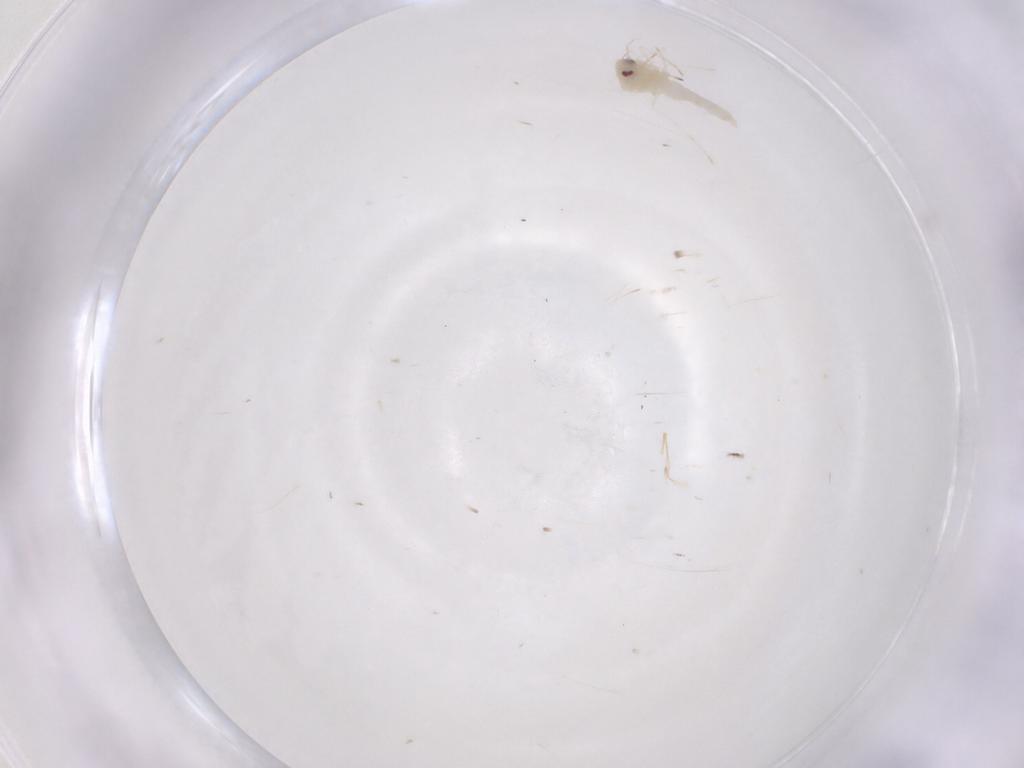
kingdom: Animalia
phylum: Arthropoda
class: Insecta
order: Hemiptera
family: Aleyrodidae
